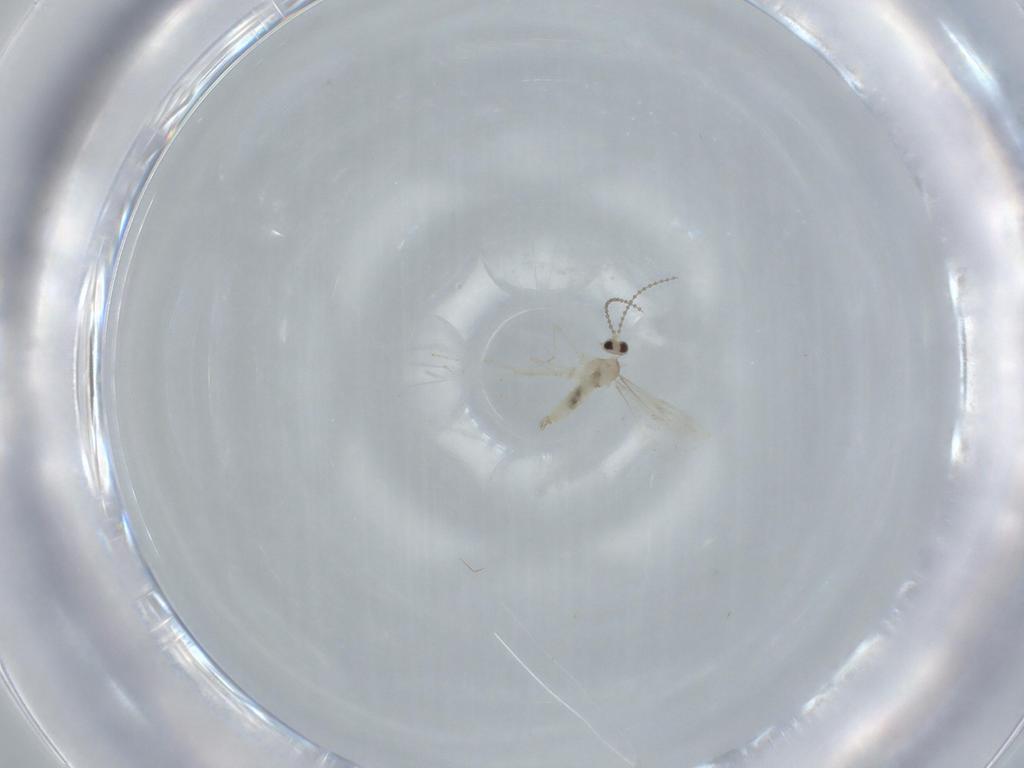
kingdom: Animalia
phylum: Arthropoda
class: Insecta
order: Diptera
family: Cecidomyiidae
